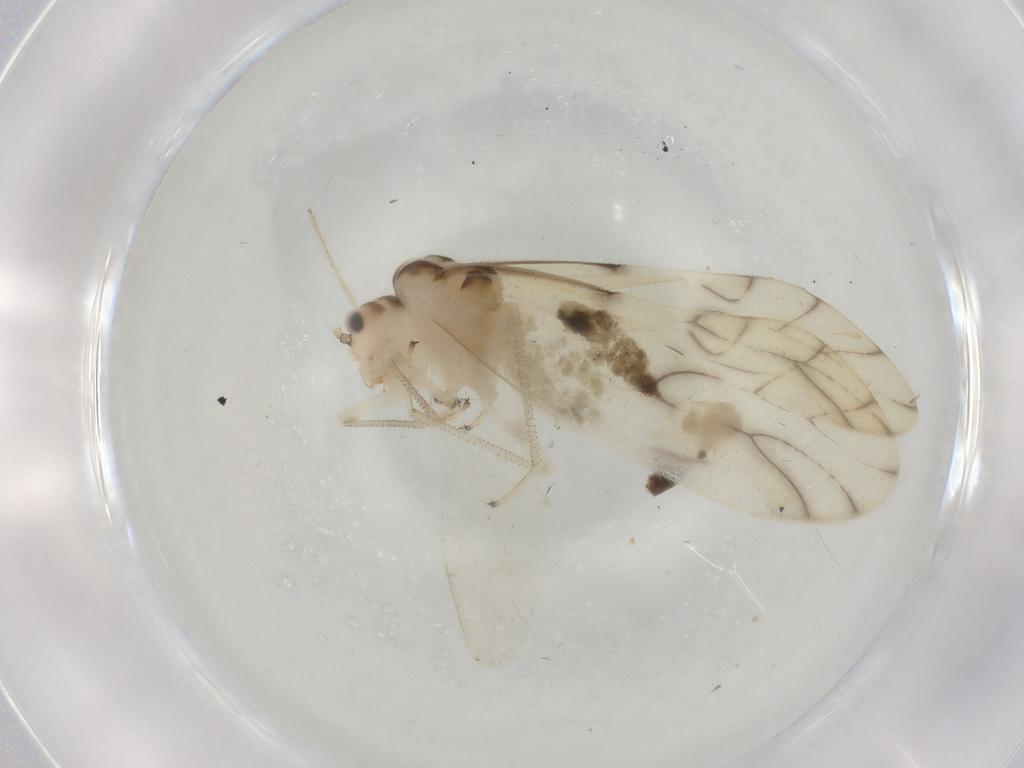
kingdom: Animalia
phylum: Arthropoda
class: Insecta
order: Psocodea
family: Caeciliusidae
